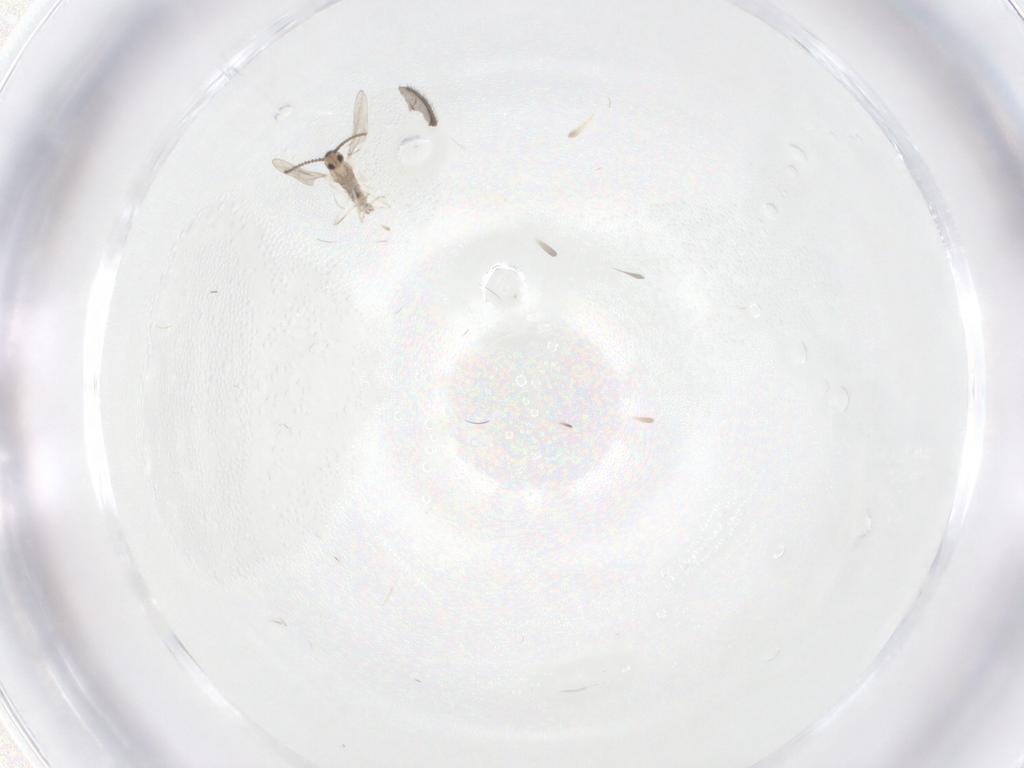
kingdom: Animalia
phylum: Arthropoda
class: Insecta
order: Diptera
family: Cecidomyiidae
